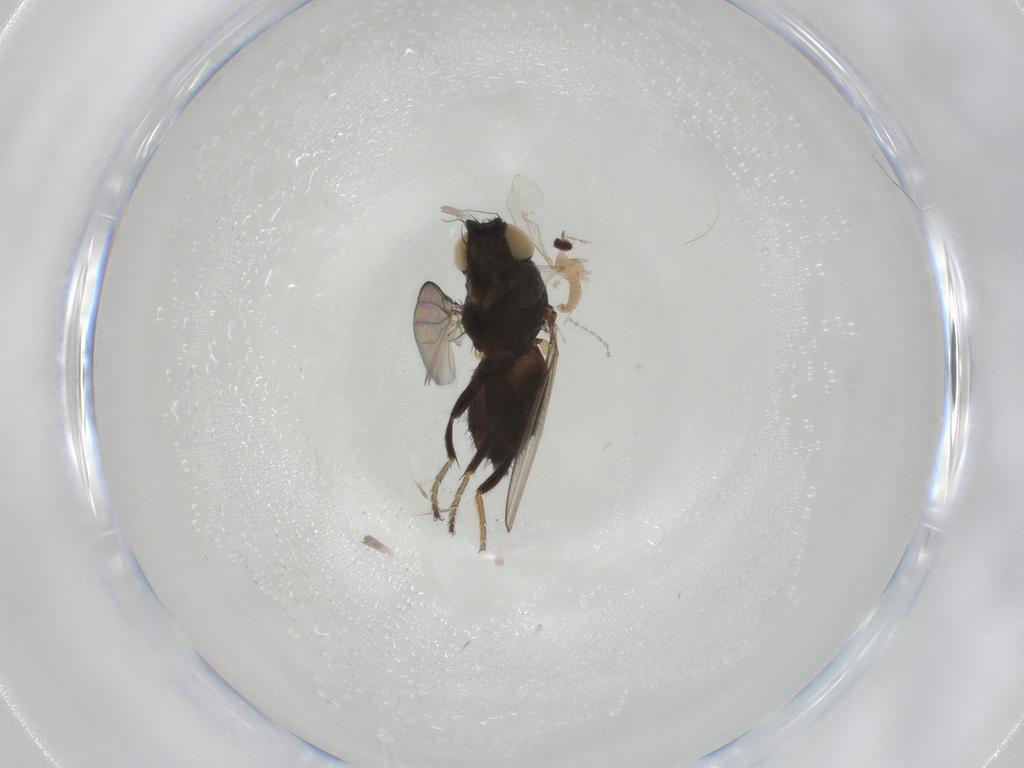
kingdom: Animalia
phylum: Arthropoda
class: Insecta
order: Diptera
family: Milichiidae
